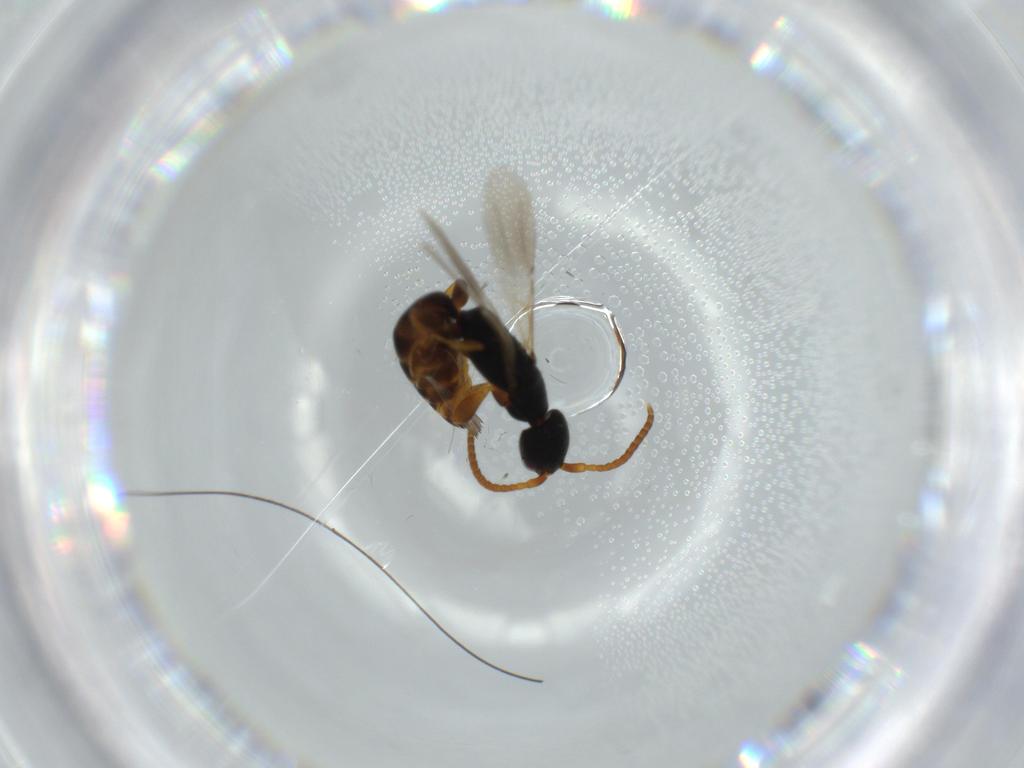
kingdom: Animalia
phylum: Arthropoda
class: Insecta
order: Hymenoptera
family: Bethylidae
